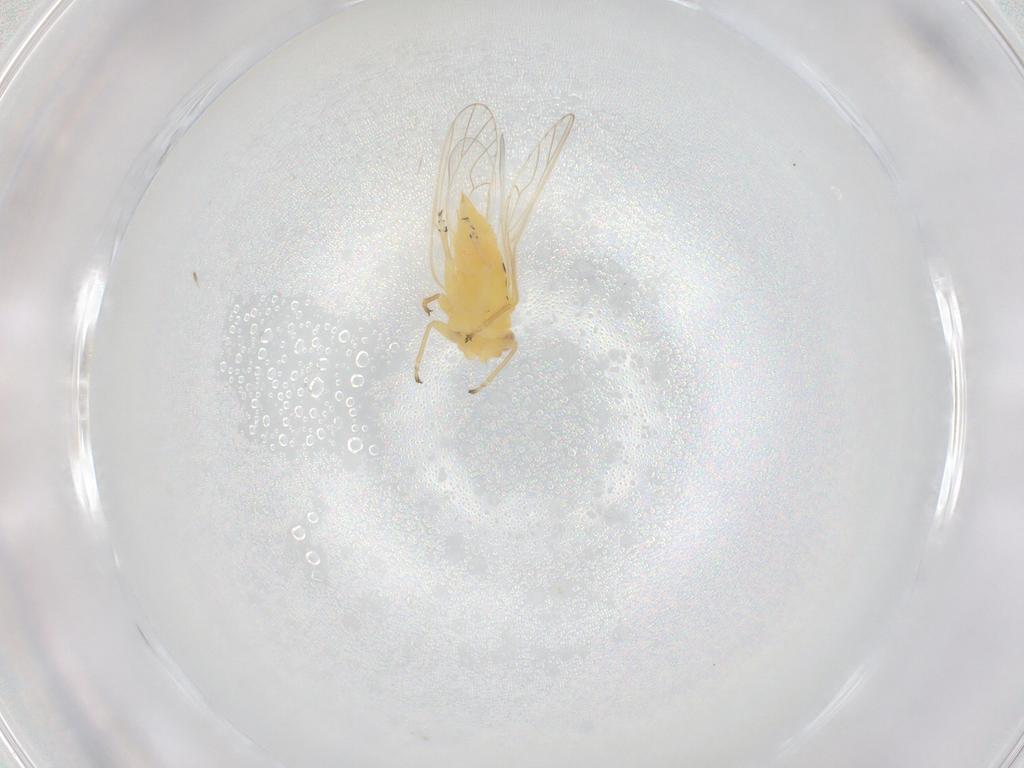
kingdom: Animalia
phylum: Arthropoda
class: Insecta
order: Hemiptera
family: Psyllidae
